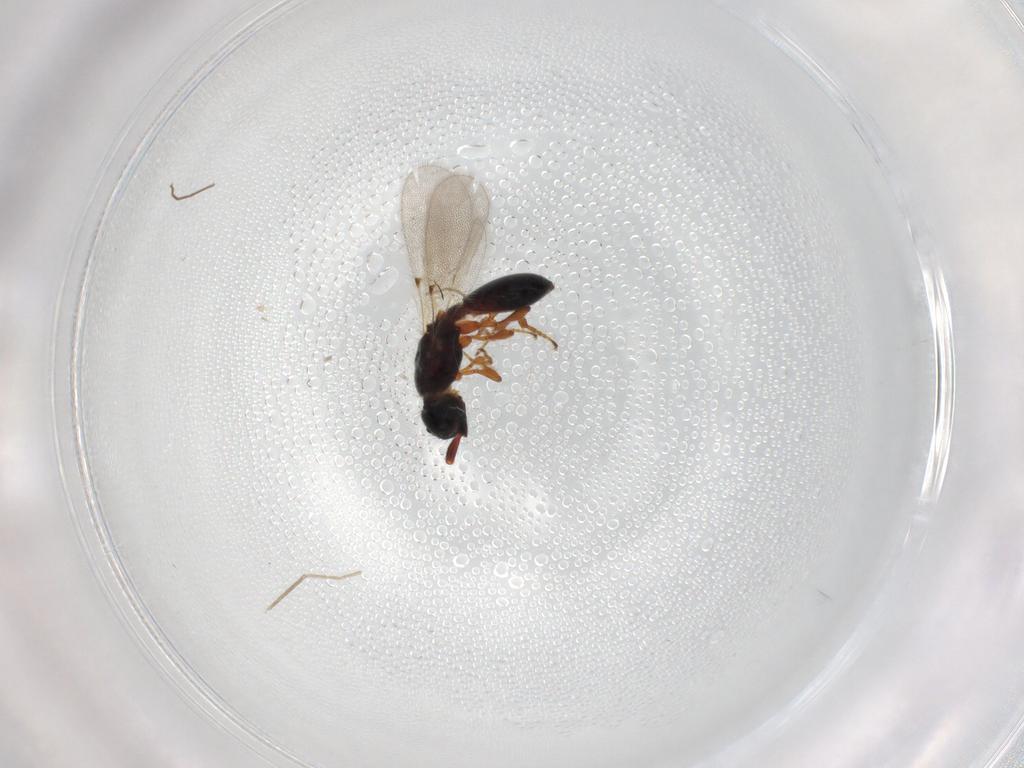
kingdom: Animalia
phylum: Arthropoda
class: Insecta
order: Hymenoptera
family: Diapriidae
